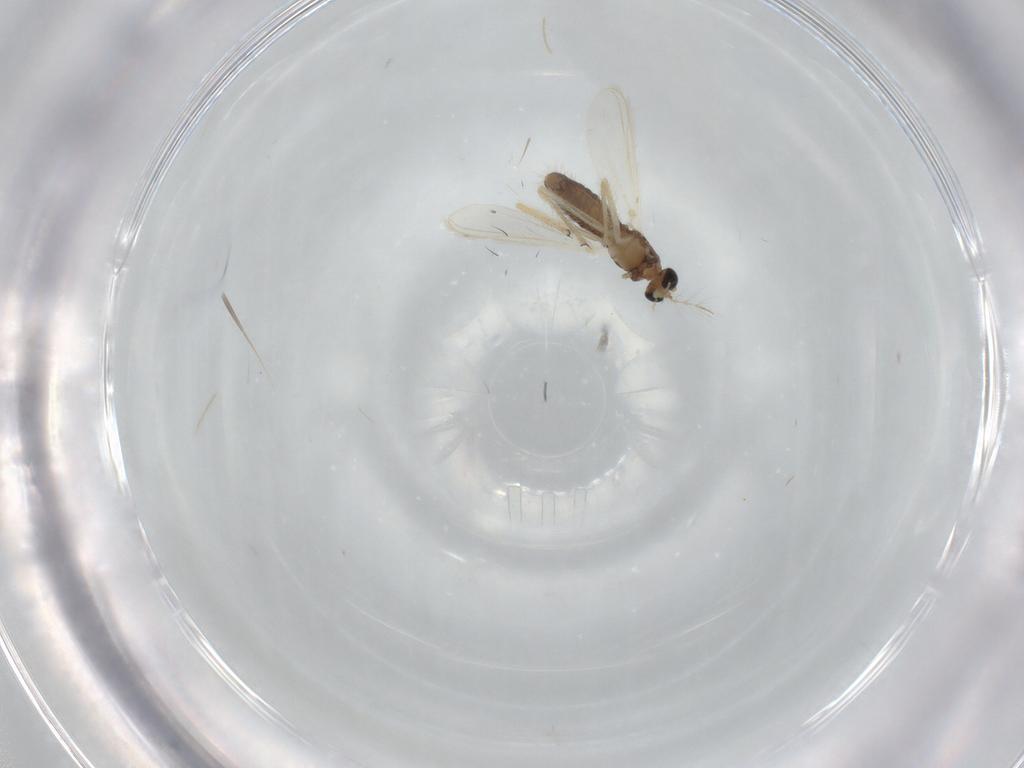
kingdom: Animalia
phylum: Arthropoda
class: Insecta
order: Diptera
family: Chironomidae
